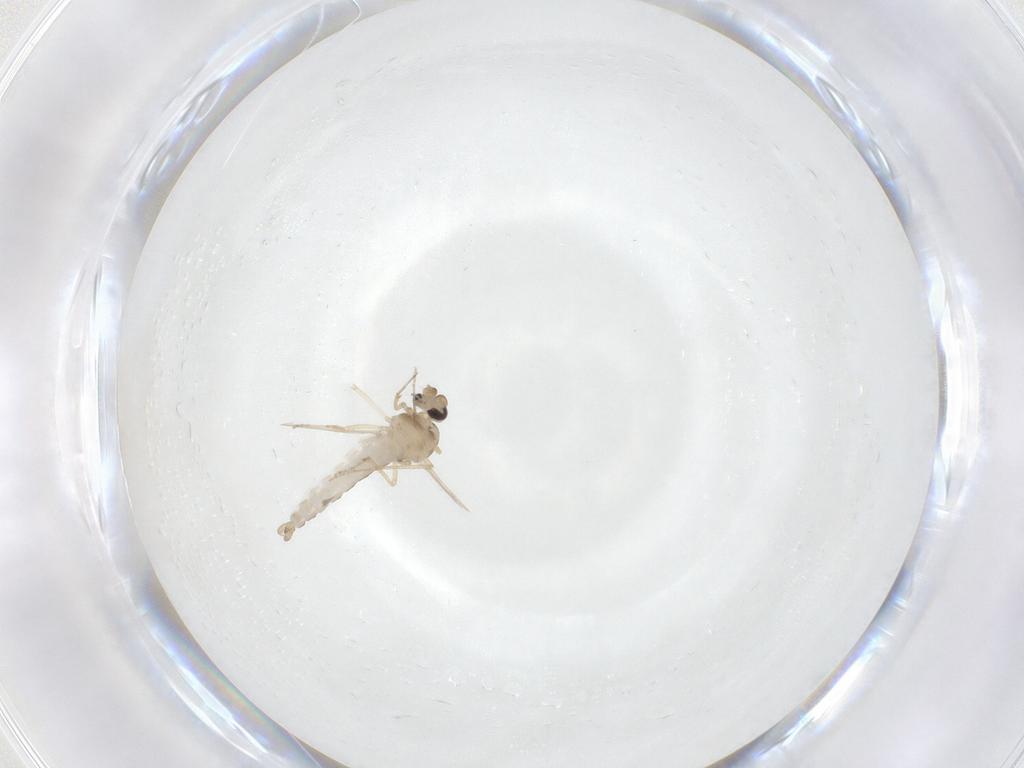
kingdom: Animalia
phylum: Arthropoda
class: Insecta
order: Diptera
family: Ceratopogonidae
